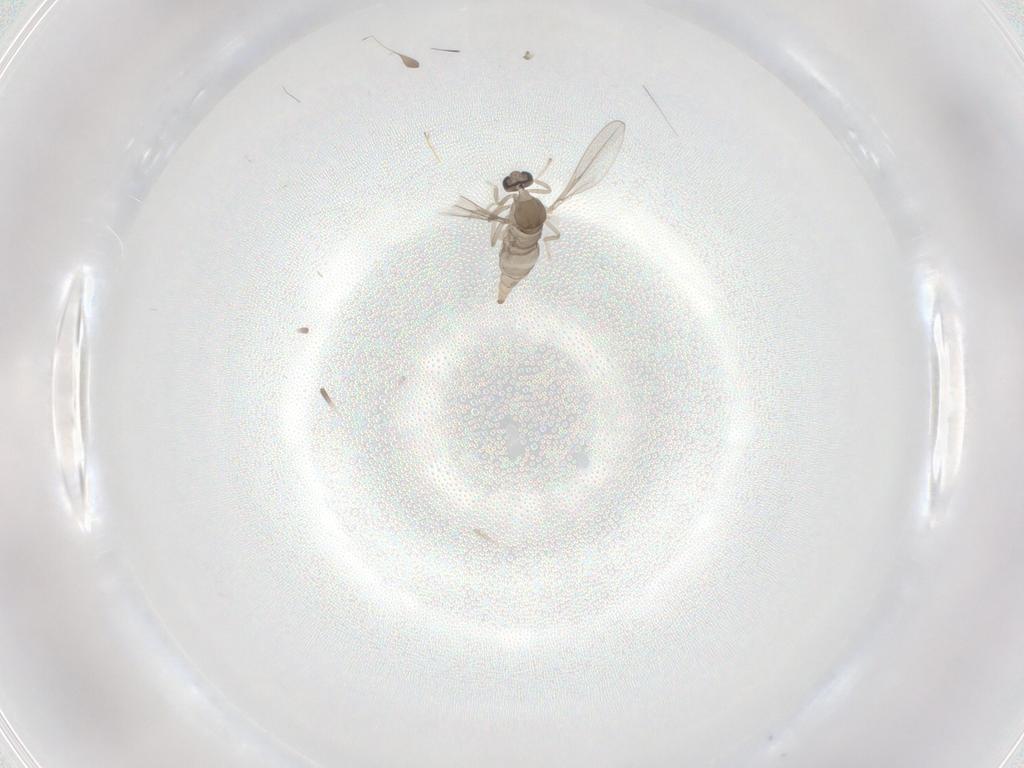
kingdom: Animalia
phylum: Arthropoda
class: Insecta
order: Diptera
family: Cecidomyiidae
